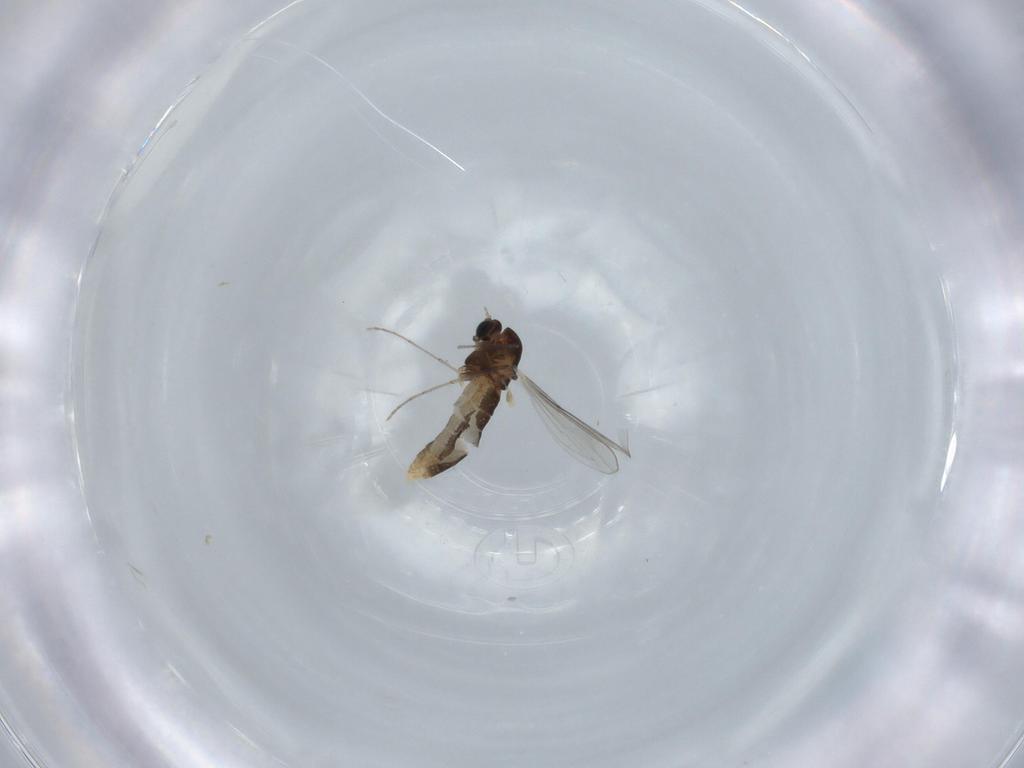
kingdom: Animalia
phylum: Arthropoda
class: Insecta
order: Diptera
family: Chironomidae
